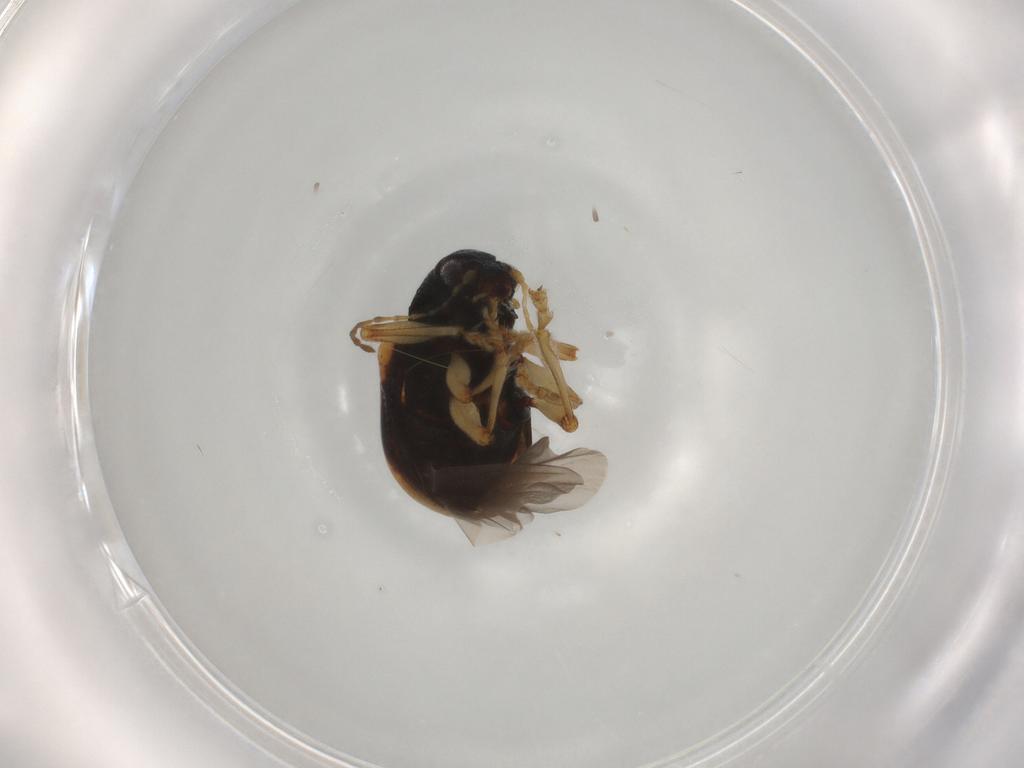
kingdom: Animalia
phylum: Arthropoda
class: Insecta
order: Coleoptera
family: Chrysomelidae
